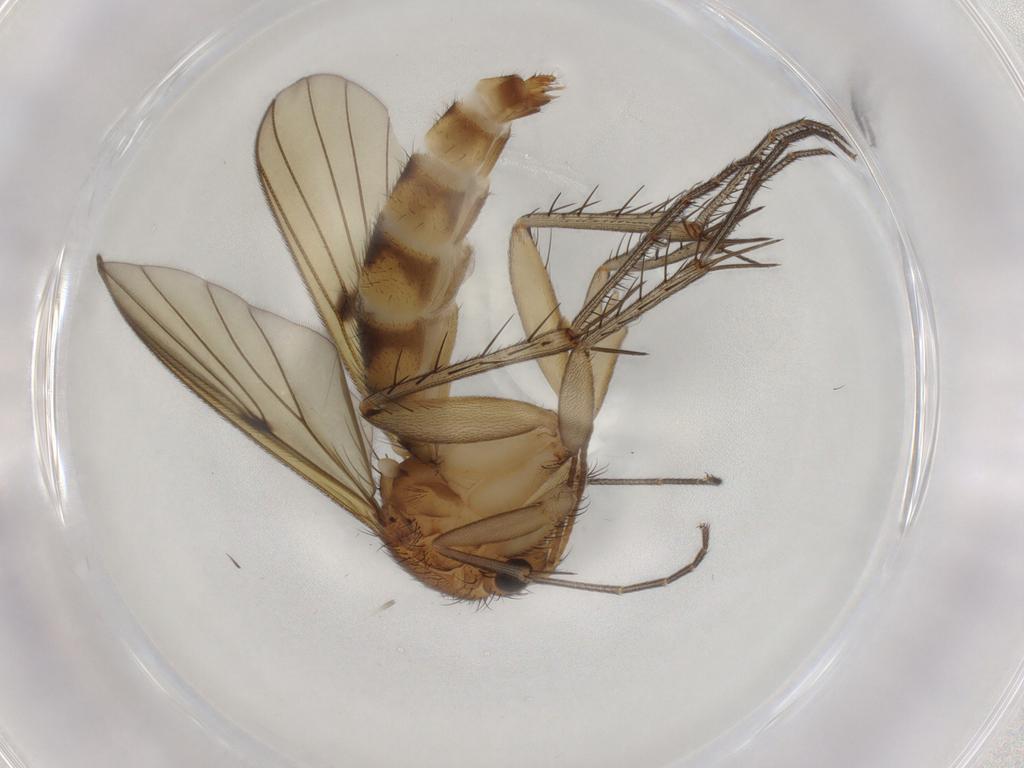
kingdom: Animalia
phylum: Arthropoda
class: Insecta
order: Diptera
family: Mycetophilidae
